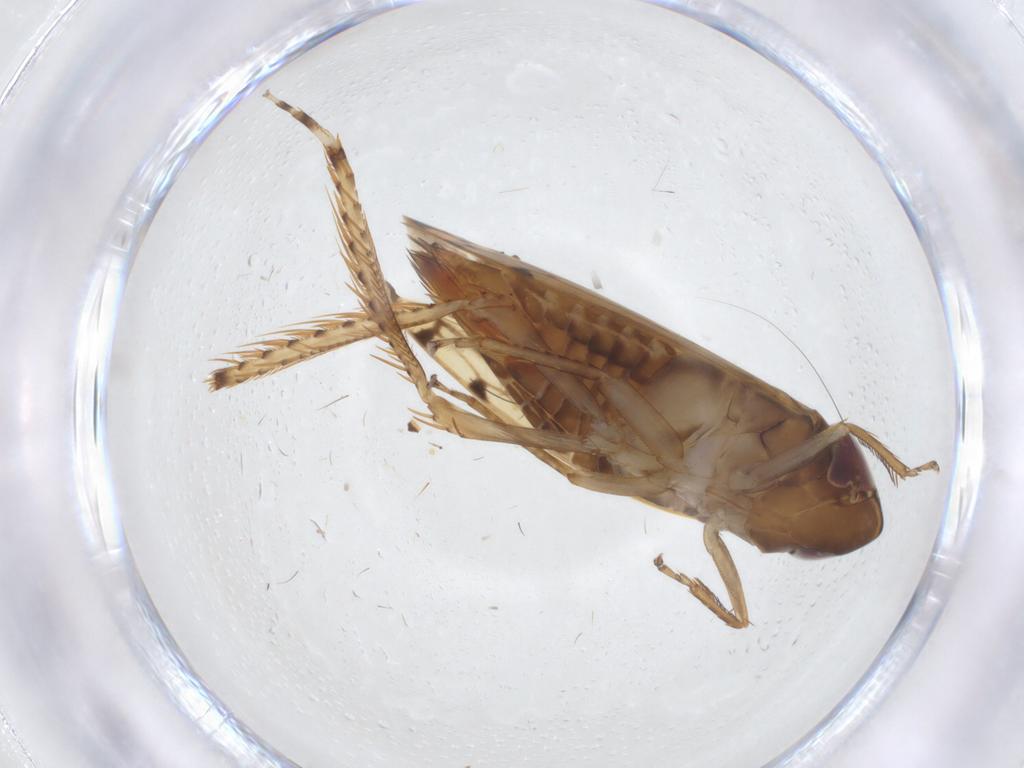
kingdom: Animalia
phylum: Arthropoda
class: Insecta
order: Hemiptera
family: Cicadellidae
